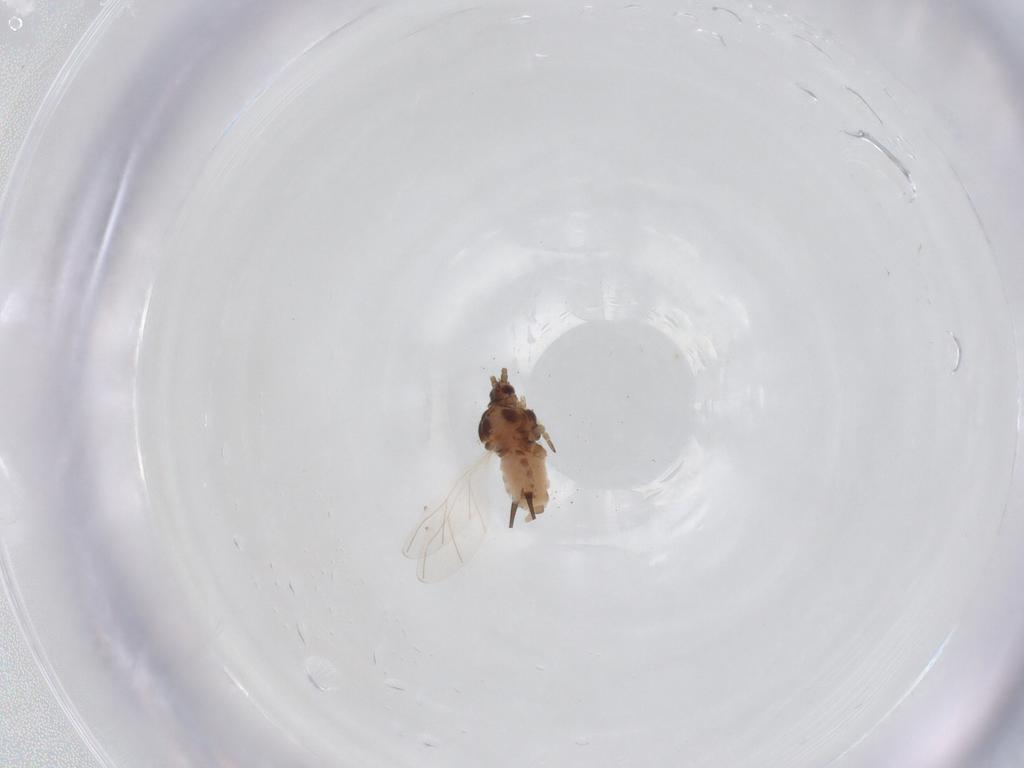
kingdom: Animalia
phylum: Arthropoda
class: Insecta
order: Hemiptera
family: Aphididae
